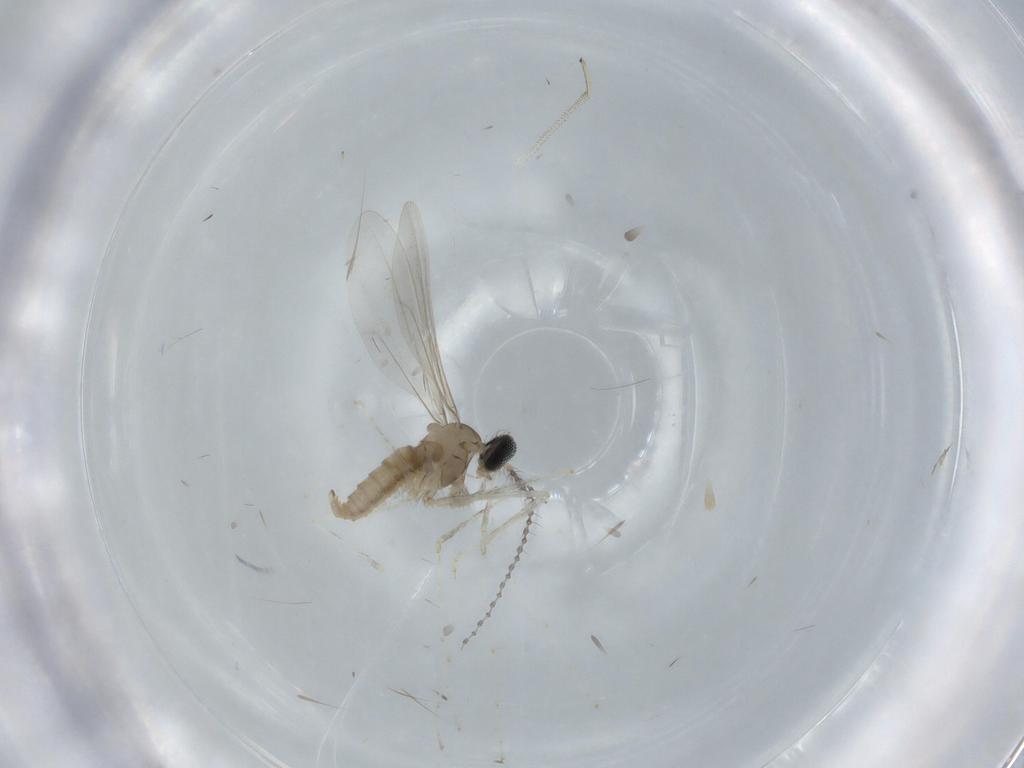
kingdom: Animalia
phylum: Arthropoda
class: Insecta
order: Diptera
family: Cecidomyiidae
